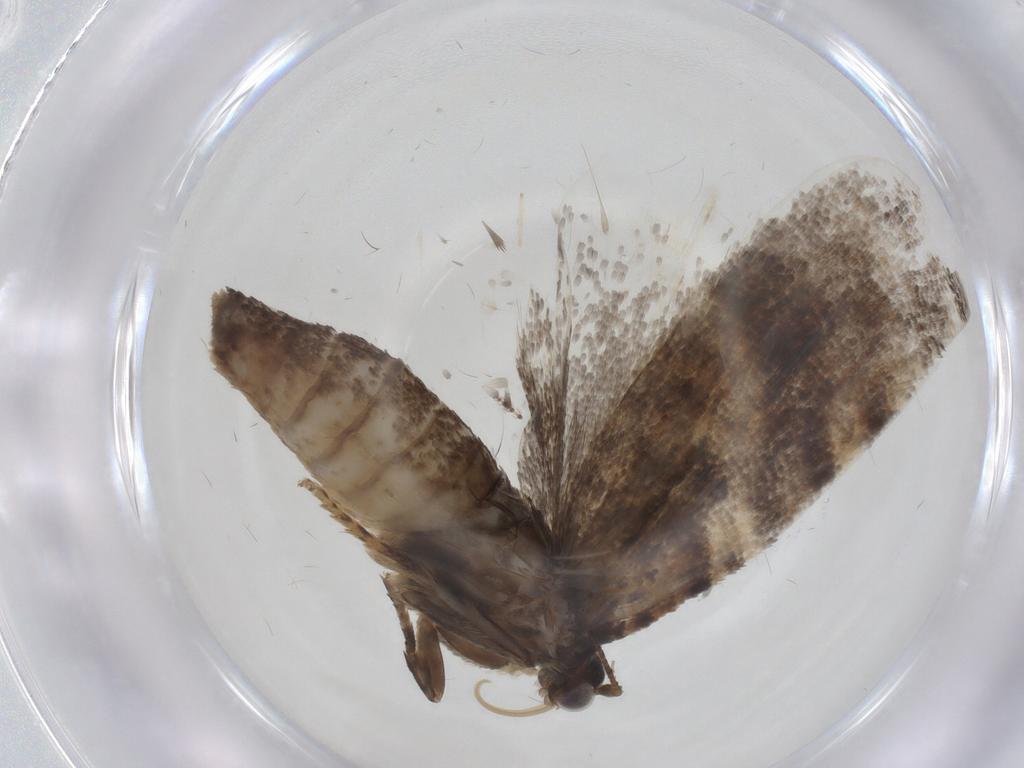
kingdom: Animalia
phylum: Arthropoda
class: Insecta
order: Lepidoptera
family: Tortricidae
